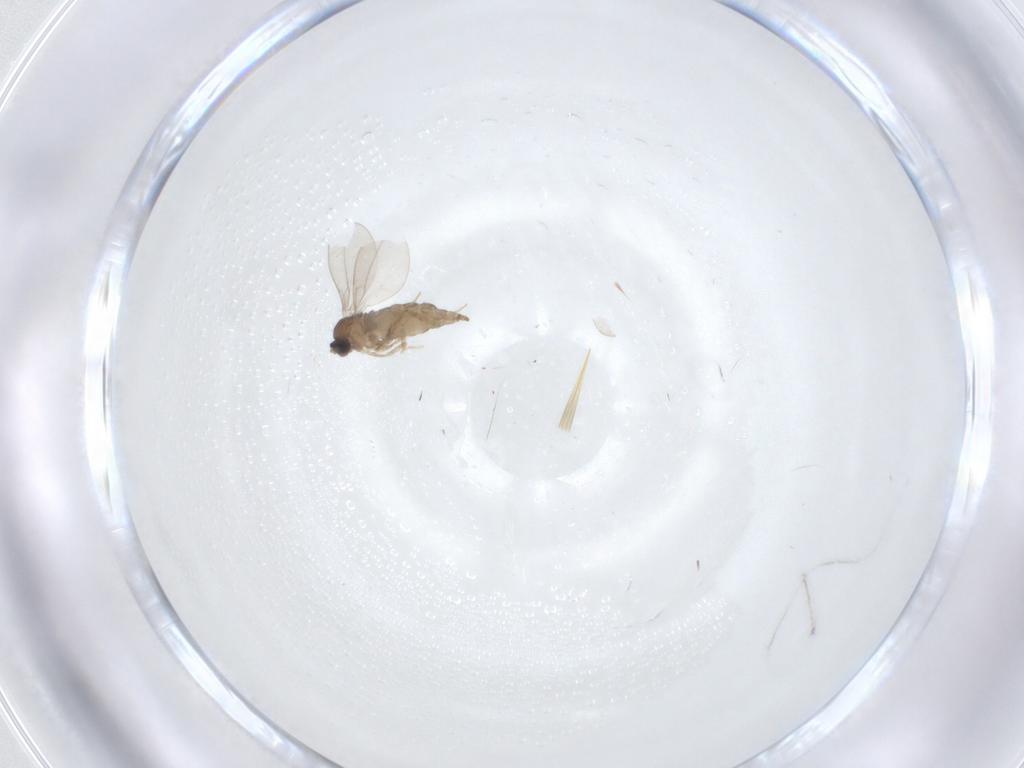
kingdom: Animalia
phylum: Arthropoda
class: Insecta
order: Diptera
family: Cecidomyiidae
